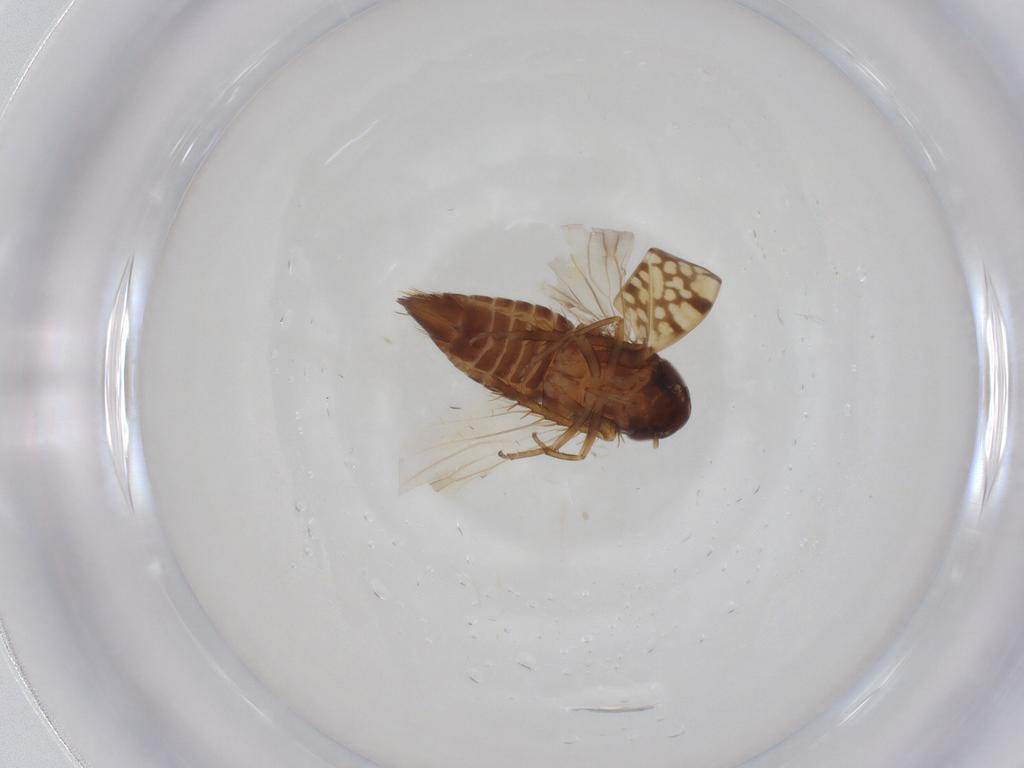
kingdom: Animalia
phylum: Arthropoda
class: Insecta
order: Hemiptera
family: Cicadellidae
